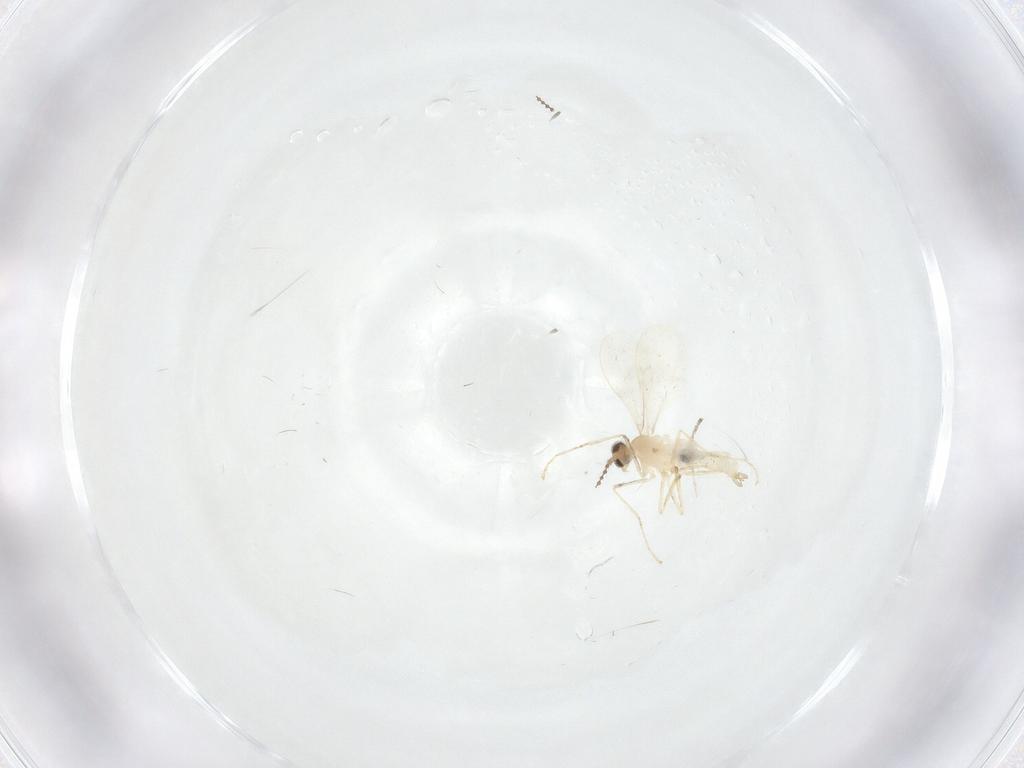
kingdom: Animalia
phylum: Arthropoda
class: Insecta
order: Diptera
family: Cecidomyiidae
